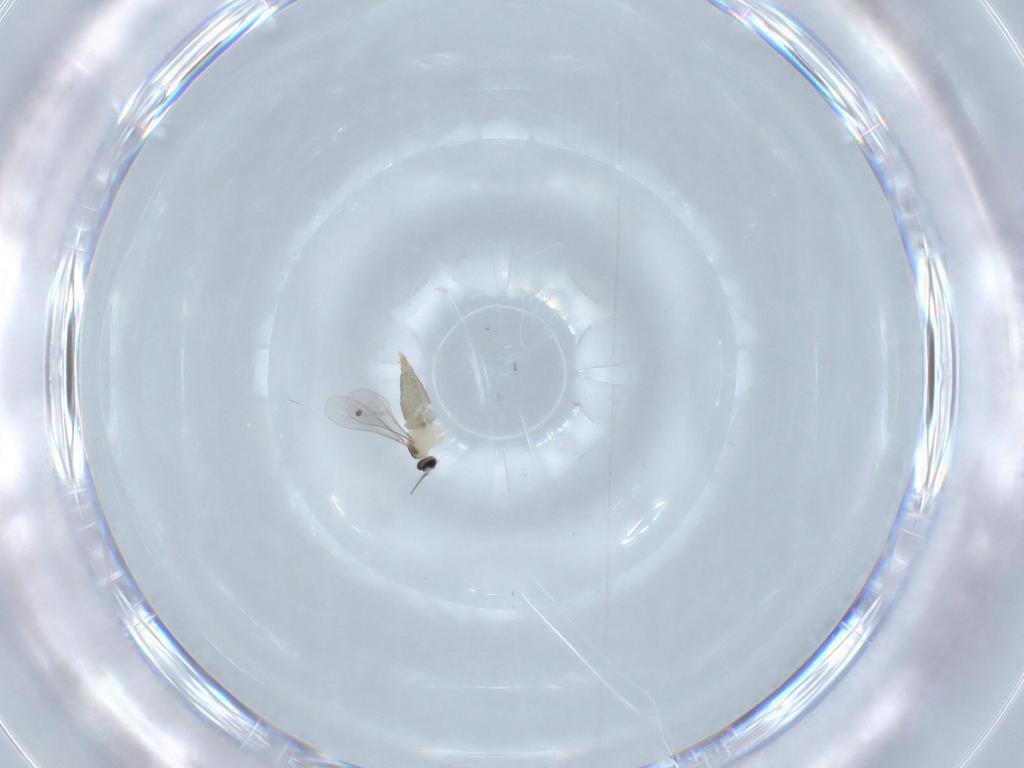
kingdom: Animalia
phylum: Arthropoda
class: Insecta
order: Diptera
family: Cecidomyiidae
